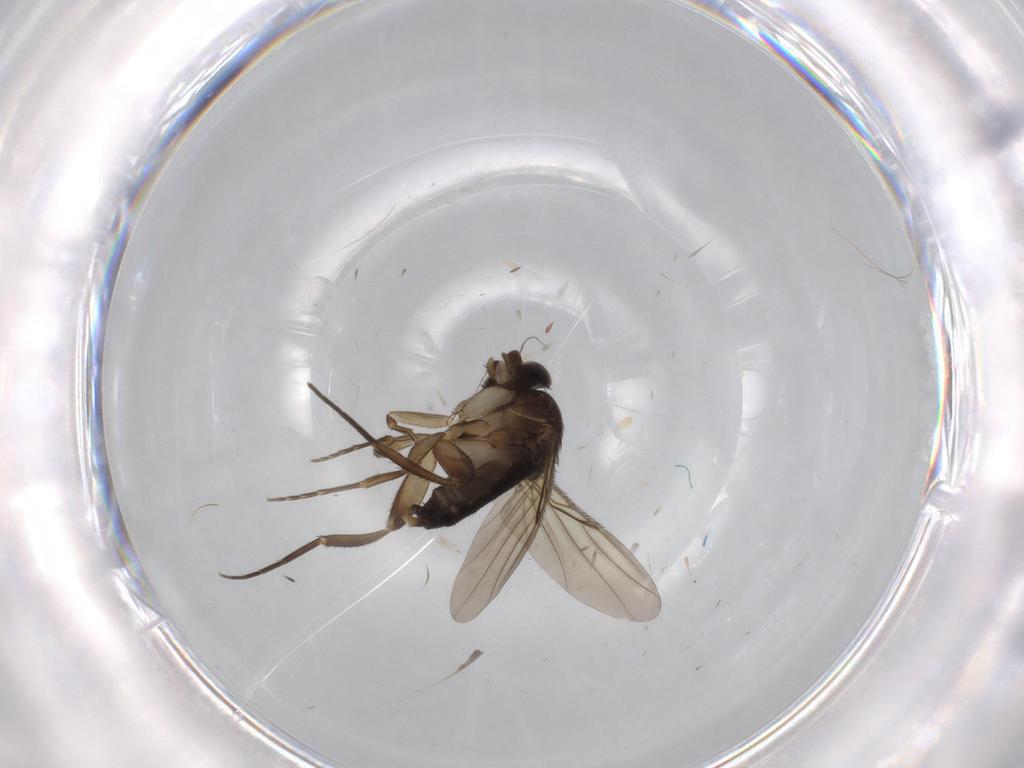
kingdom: Animalia
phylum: Arthropoda
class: Insecta
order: Diptera
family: Phoridae
